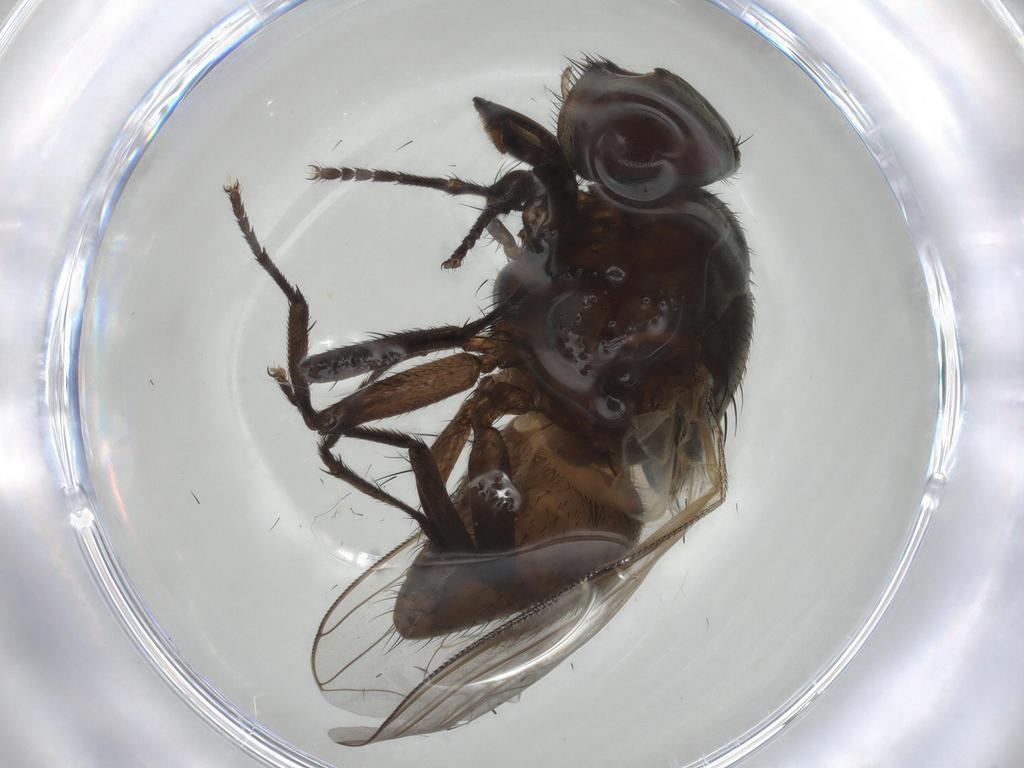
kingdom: Animalia
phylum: Arthropoda
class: Insecta
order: Diptera
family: Muscidae
